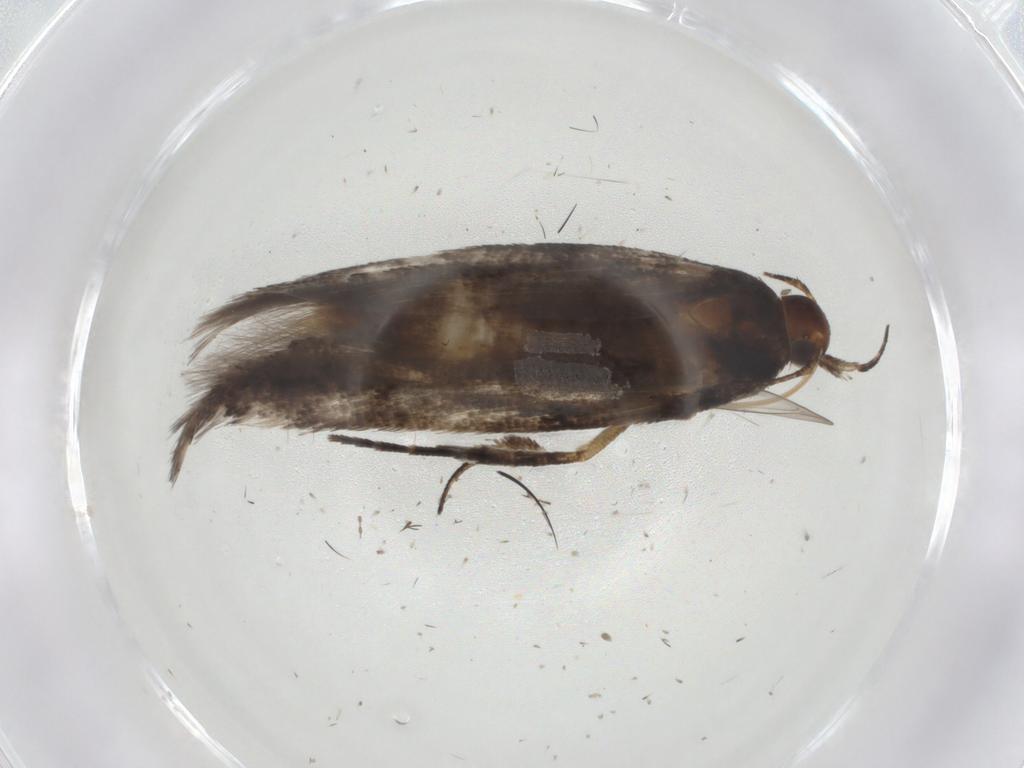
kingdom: Animalia
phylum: Arthropoda
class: Insecta
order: Lepidoptera
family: Gelechiidae
